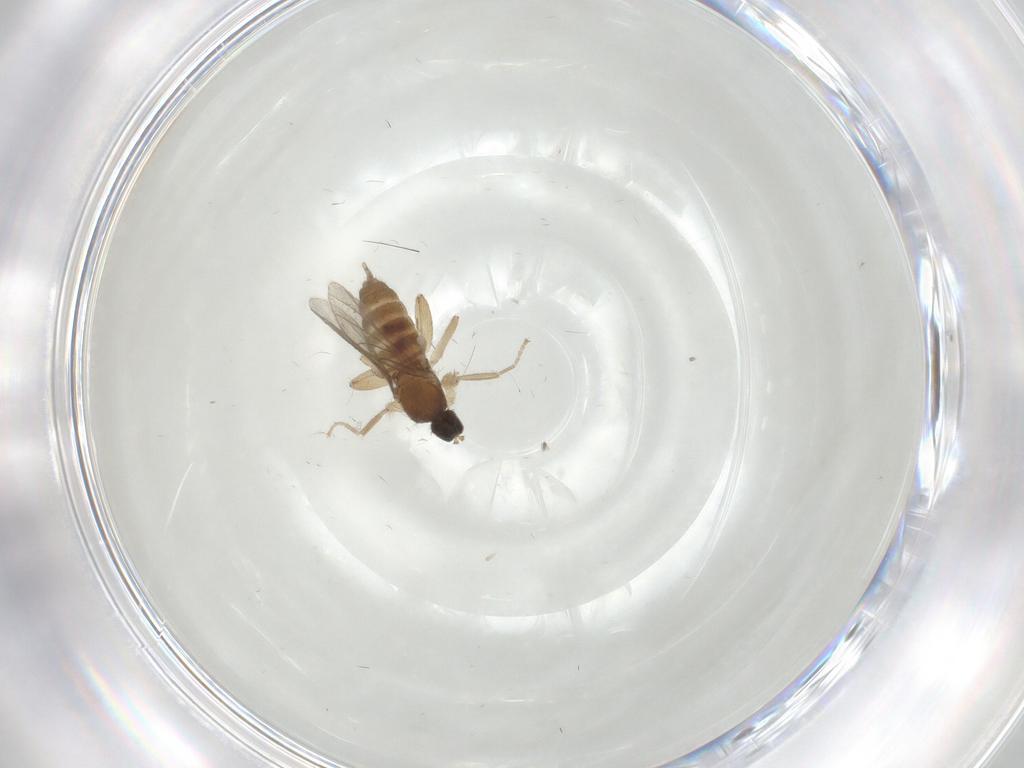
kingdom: Animalia
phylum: Arthropoda
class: Insecta
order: Diptera
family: Hybotidae
